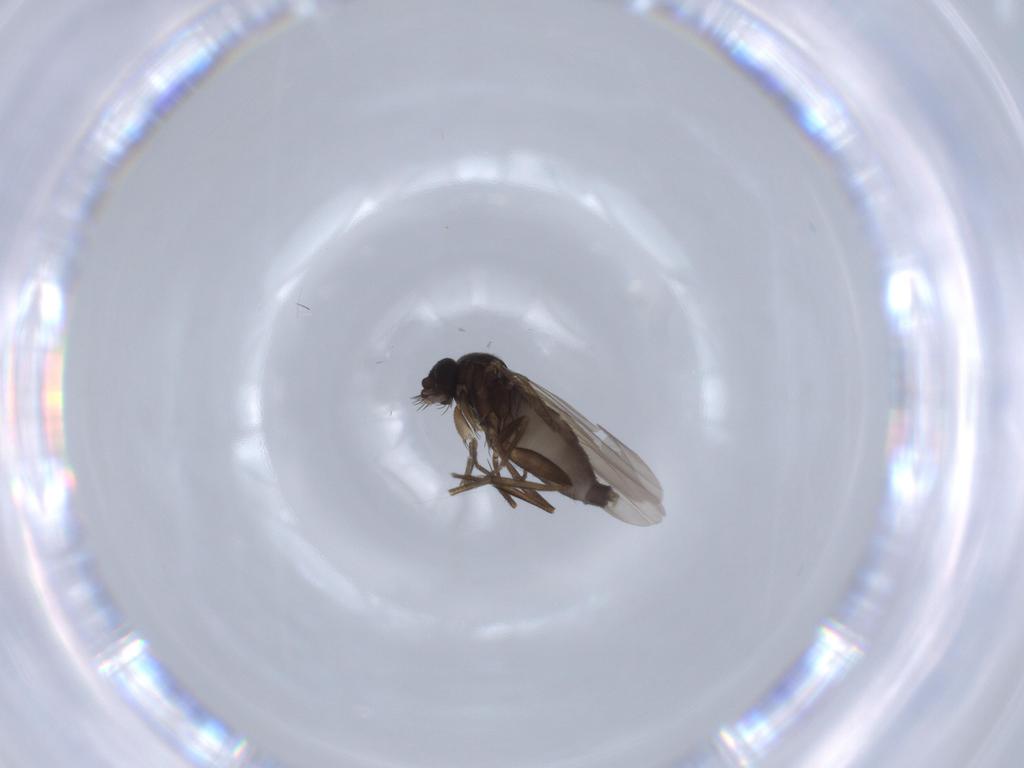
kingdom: Animalia
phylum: Arthropoda
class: Insecta
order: Diptera
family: Phoridae
